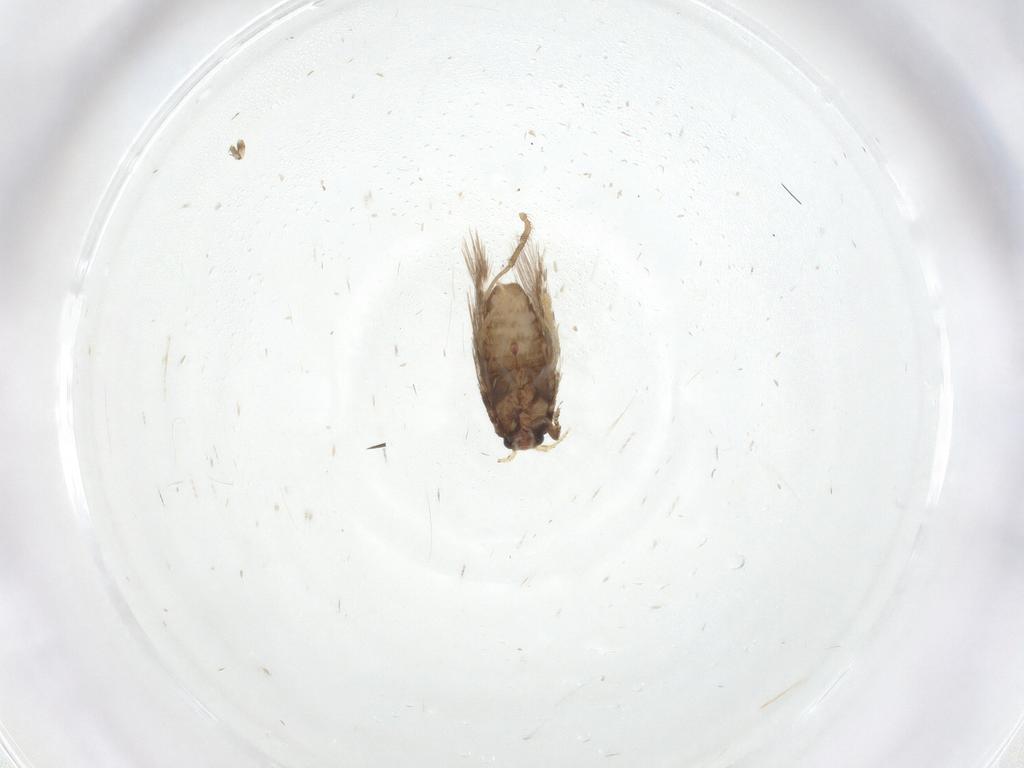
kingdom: Animalia
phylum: Arthropoda
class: Insecta
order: Lepidoptera
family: Nepticulidae
